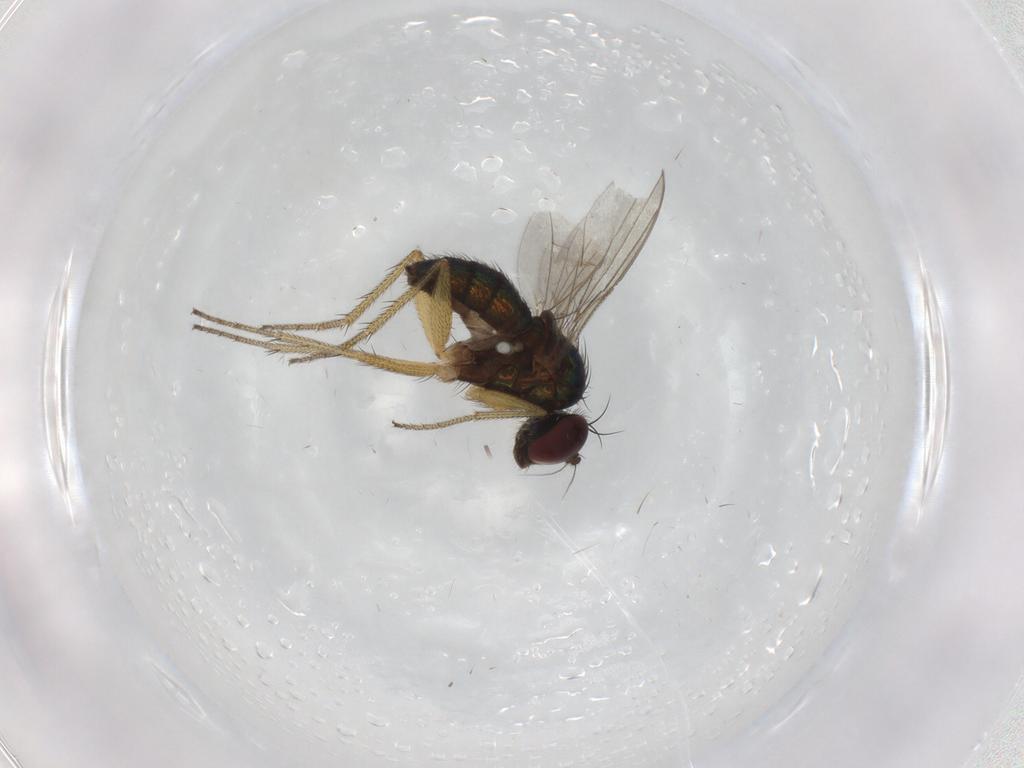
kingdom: Animalia
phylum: Arthropoda
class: Insecta
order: Diptera
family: Dolichopodidae
